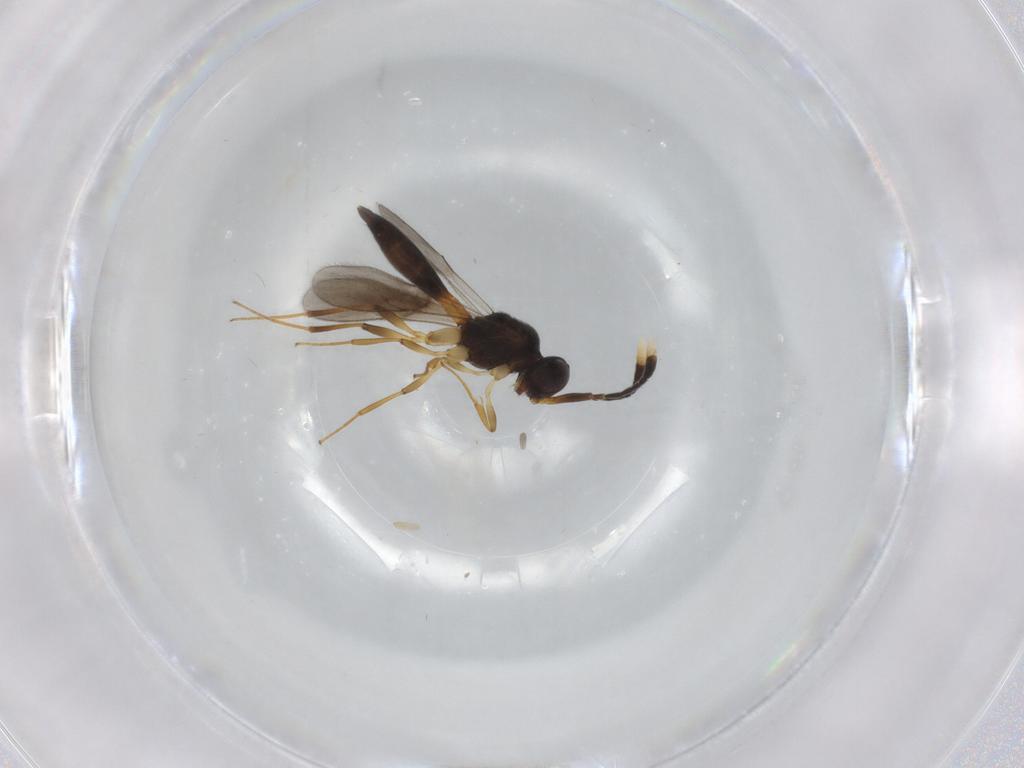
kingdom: Animalia
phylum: Arthropoda
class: Insecta
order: Hymenoptera
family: Scelionidae
